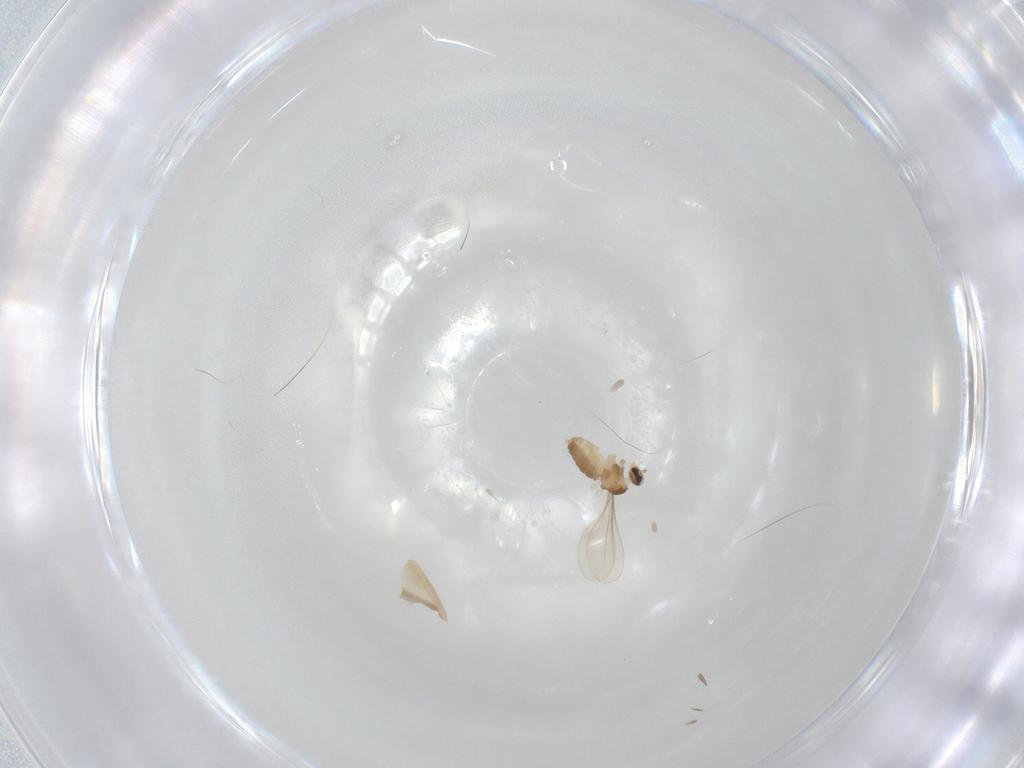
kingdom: Animalia
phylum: Arthropoda
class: Insecta
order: Diptera
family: Cecidomyiidae
